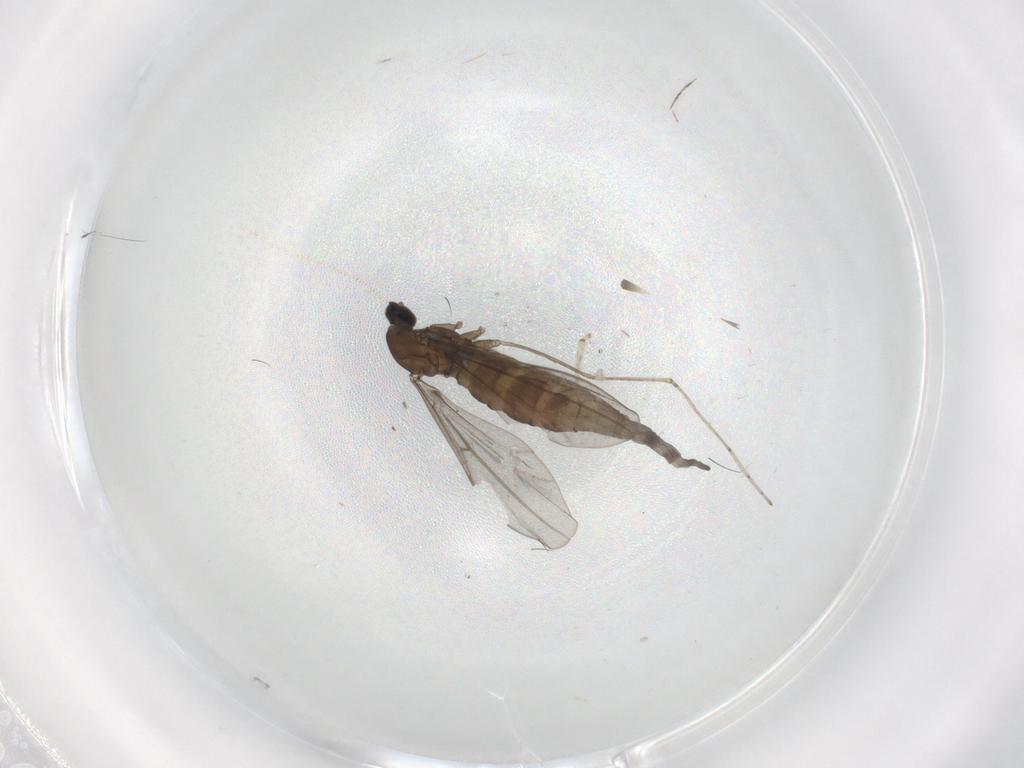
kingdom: Animalia
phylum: Arthropoda
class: Insecta
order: Diptera
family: Cecidomyiidae
